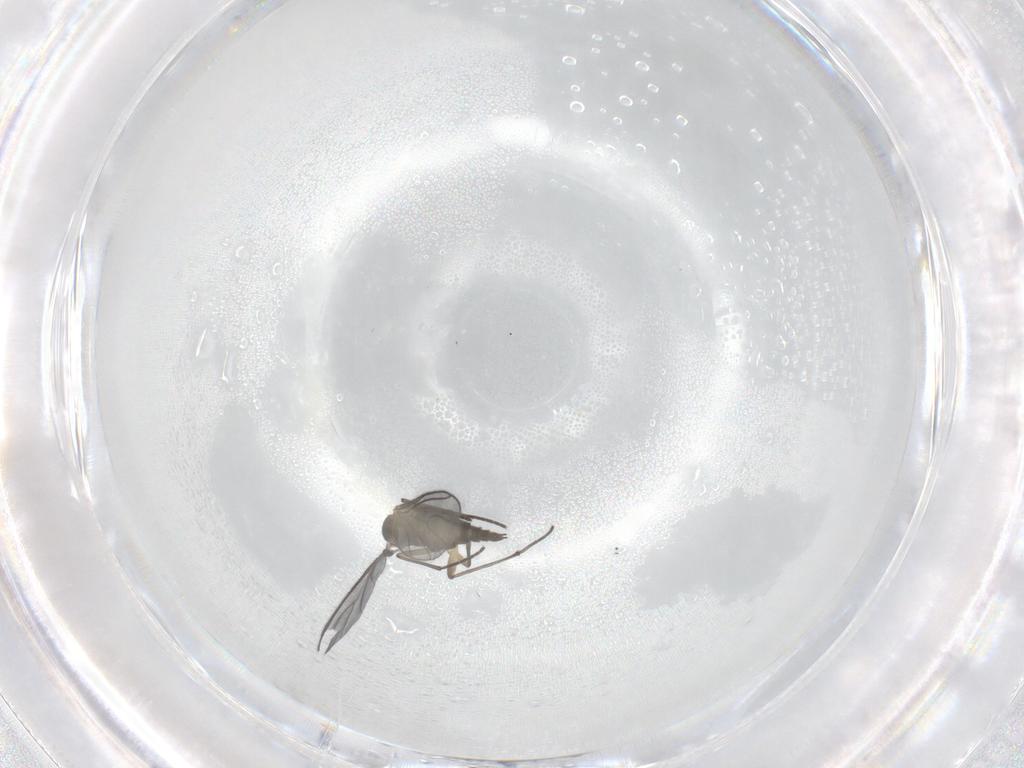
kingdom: Animalia
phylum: Arthropoda
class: Insecta
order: Diptera
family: Sciaridae
